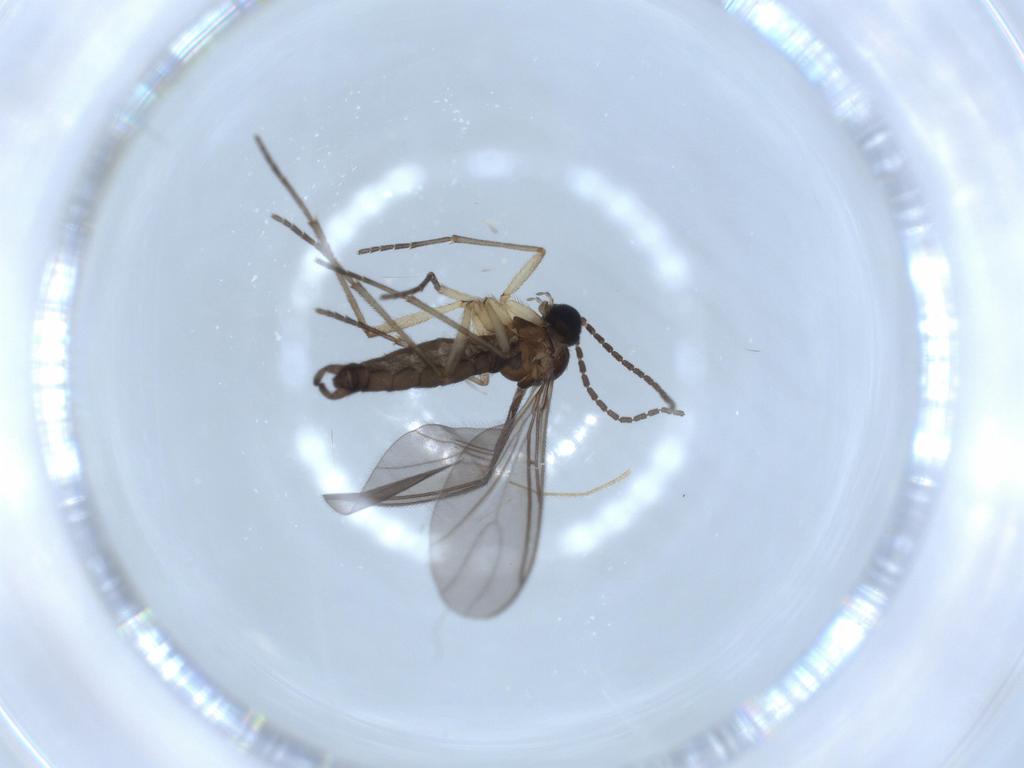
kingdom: Animalia
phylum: Arthropoda
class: Insecta
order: Diptera
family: Sciaridae
